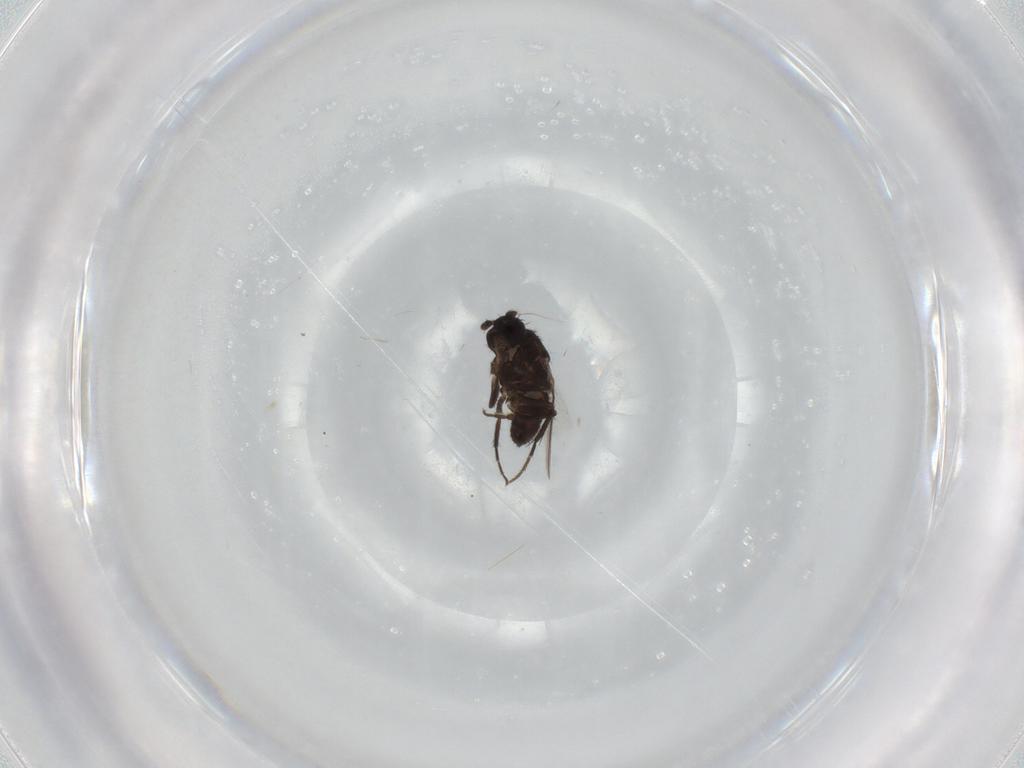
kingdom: Animalia
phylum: Arthropoda
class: Insecta
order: Diptera
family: Sphaeroceridae
